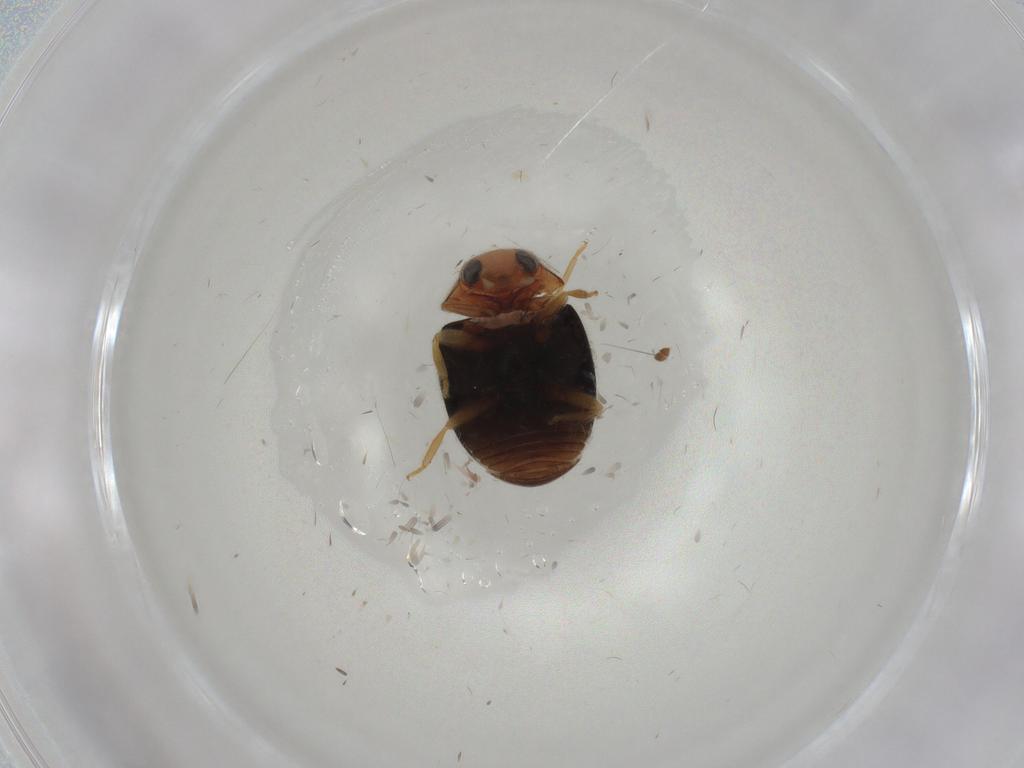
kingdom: Animalia
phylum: Arthropoda
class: Insecta
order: Coleoptera
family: Coccinellidae
